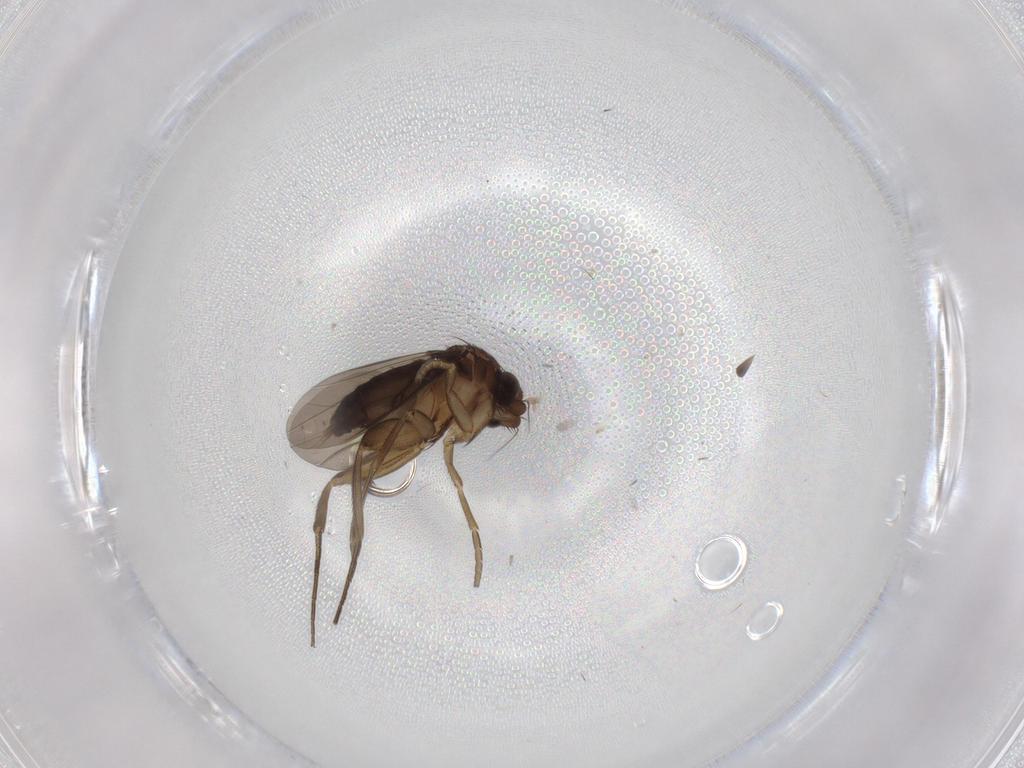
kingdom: Animalia
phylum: Arthropoda
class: Insecta
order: Diptera
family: Phoridae
